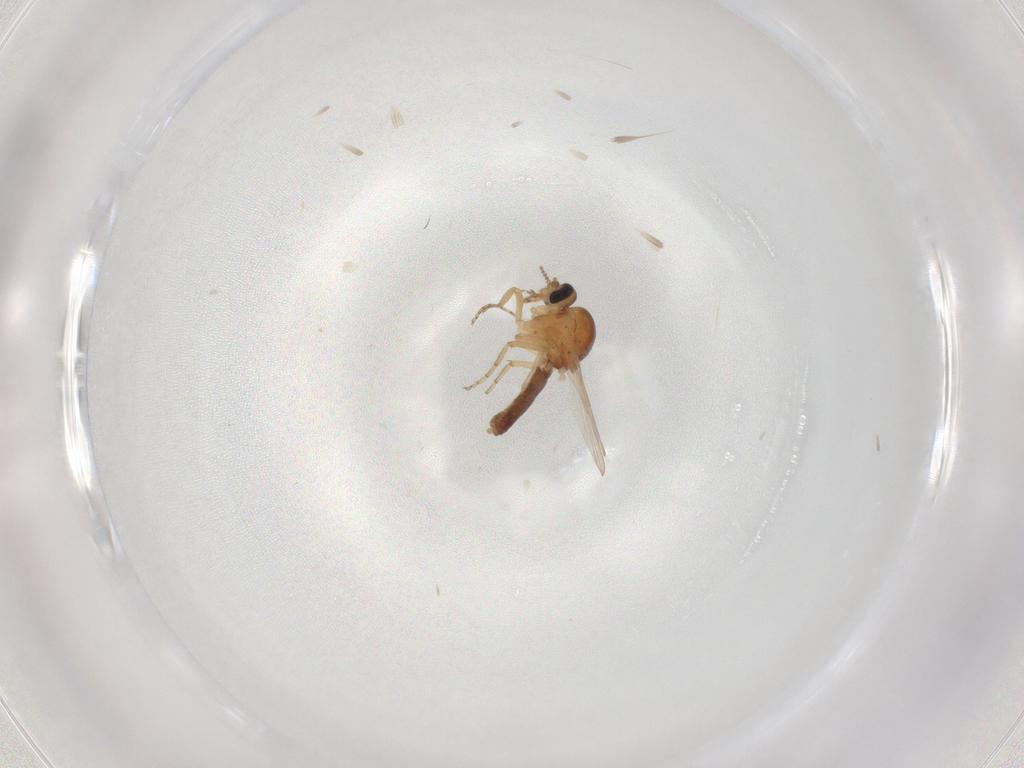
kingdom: Animalia
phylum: Arthropoda
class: Insecta
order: Diptera
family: Ceratopogonidae
